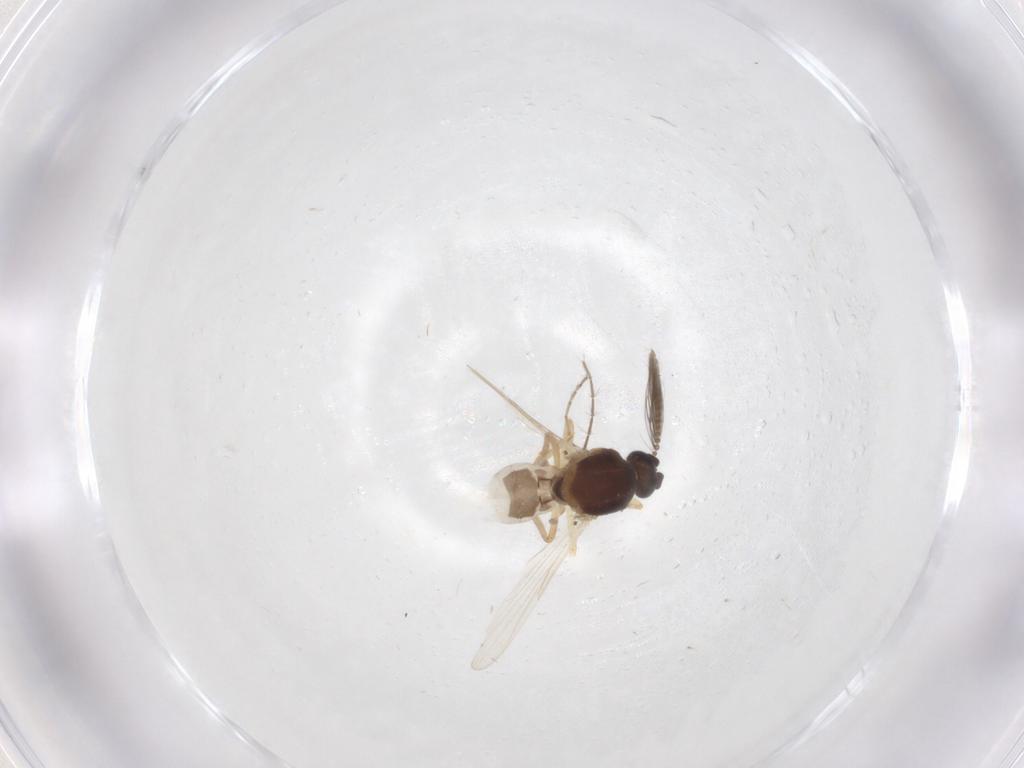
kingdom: Animalia
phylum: Arthropoda
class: Insecta
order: Diptera
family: Ceratopogonidae
